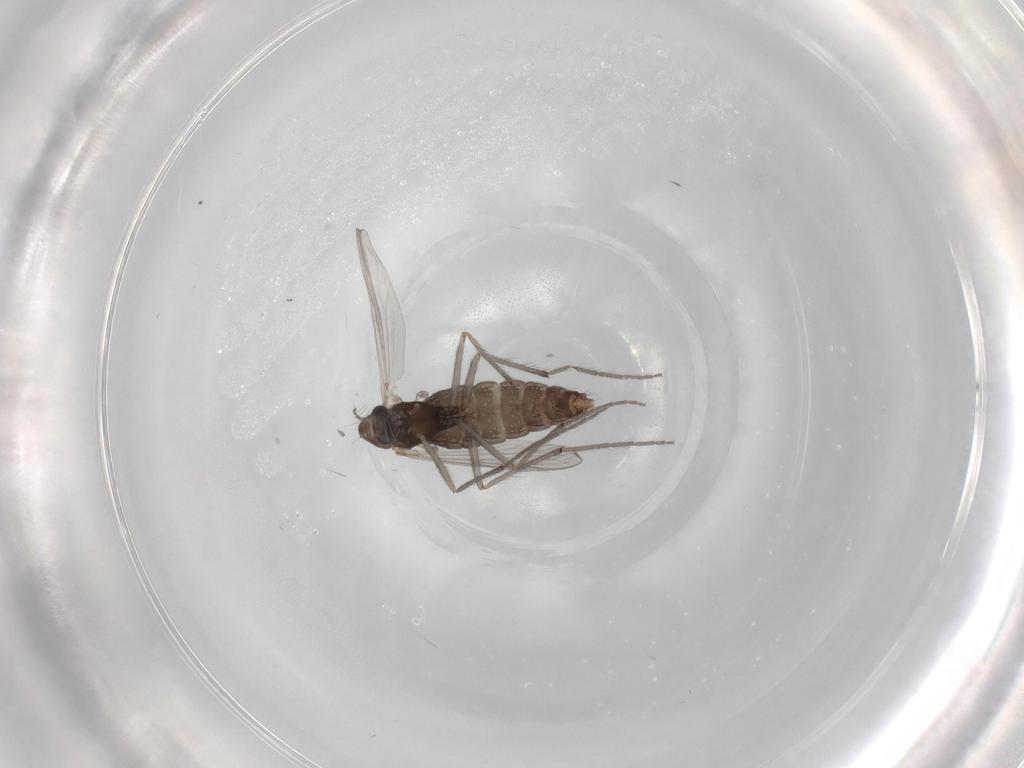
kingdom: Animalia
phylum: Arthropoda
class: Insecta
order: Diptera
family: Chironomidae
